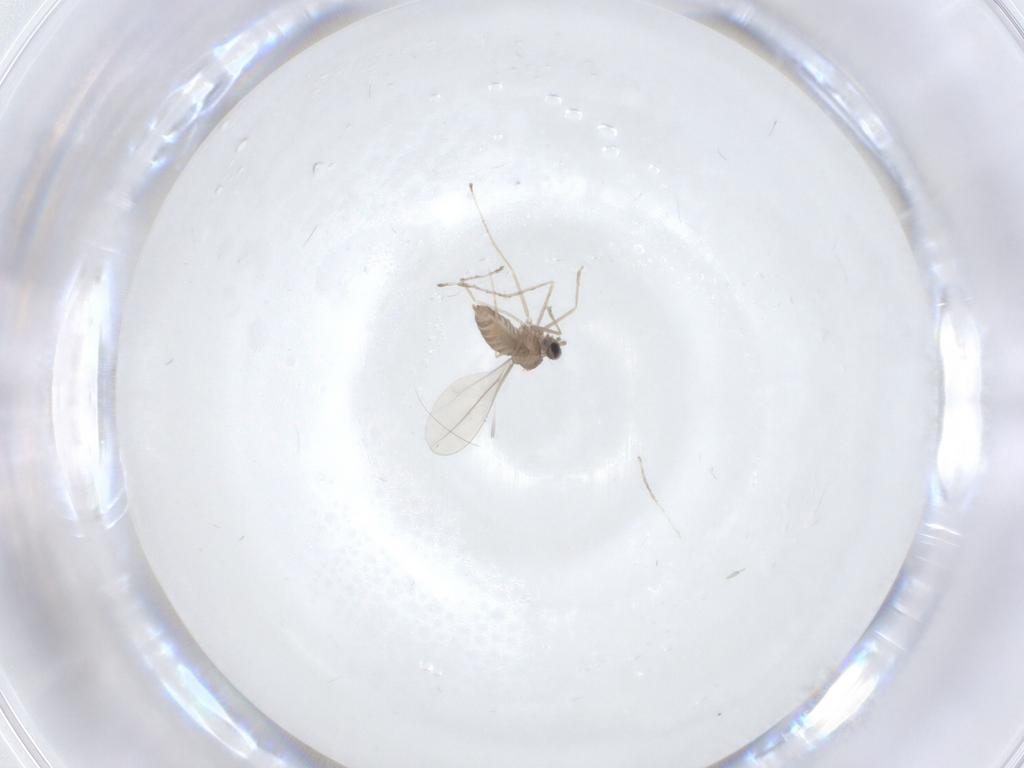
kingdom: Animalia
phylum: Arthropoda
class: Insecta
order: Diptera
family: Cecidomyiidae
